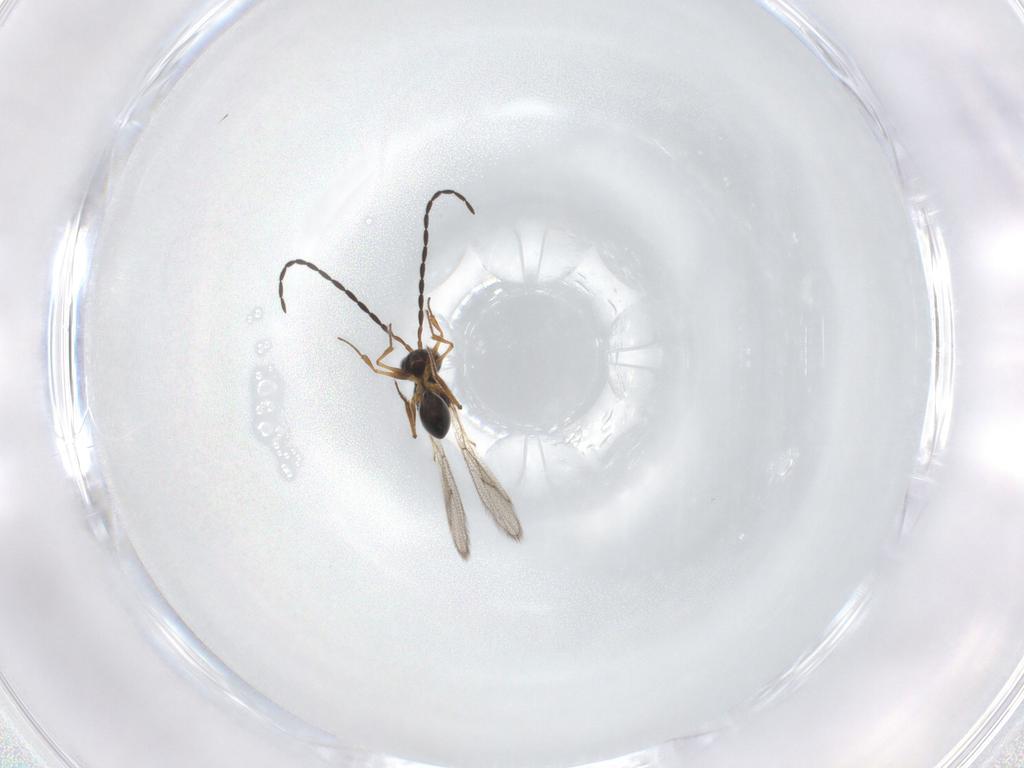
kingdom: Animalia
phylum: Arthropoda
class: Insecta
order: Hymenoptera
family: Figitidae
